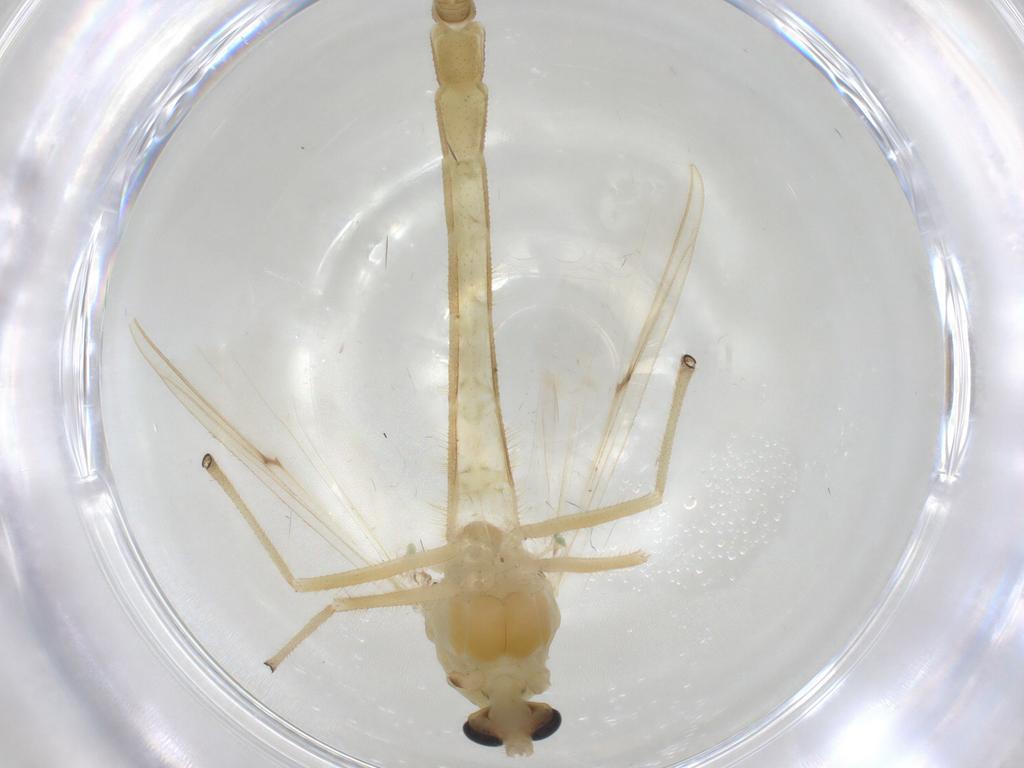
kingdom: Animalia
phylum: Arthropoda
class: Insecta
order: Diptera
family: Chironomidae
